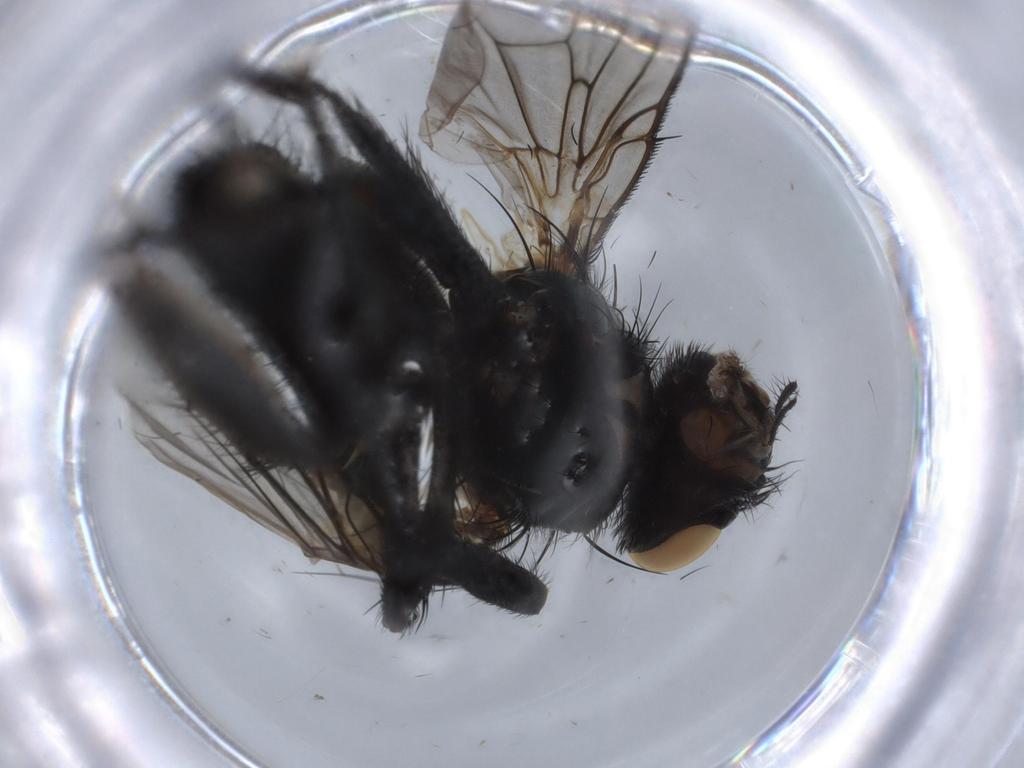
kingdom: Animalia
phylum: Arthropoda
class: Insecta
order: Diptera
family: Muscidae
